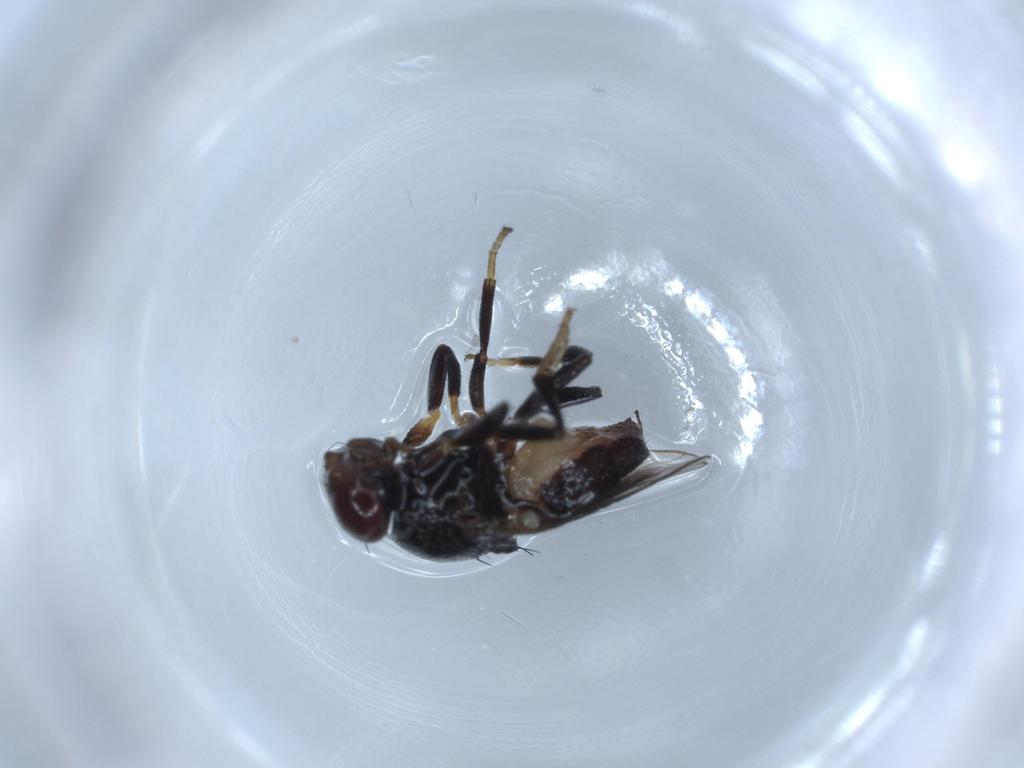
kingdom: Animalia
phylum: Arthropoda
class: Insecta
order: Diptera
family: Chloropidae
